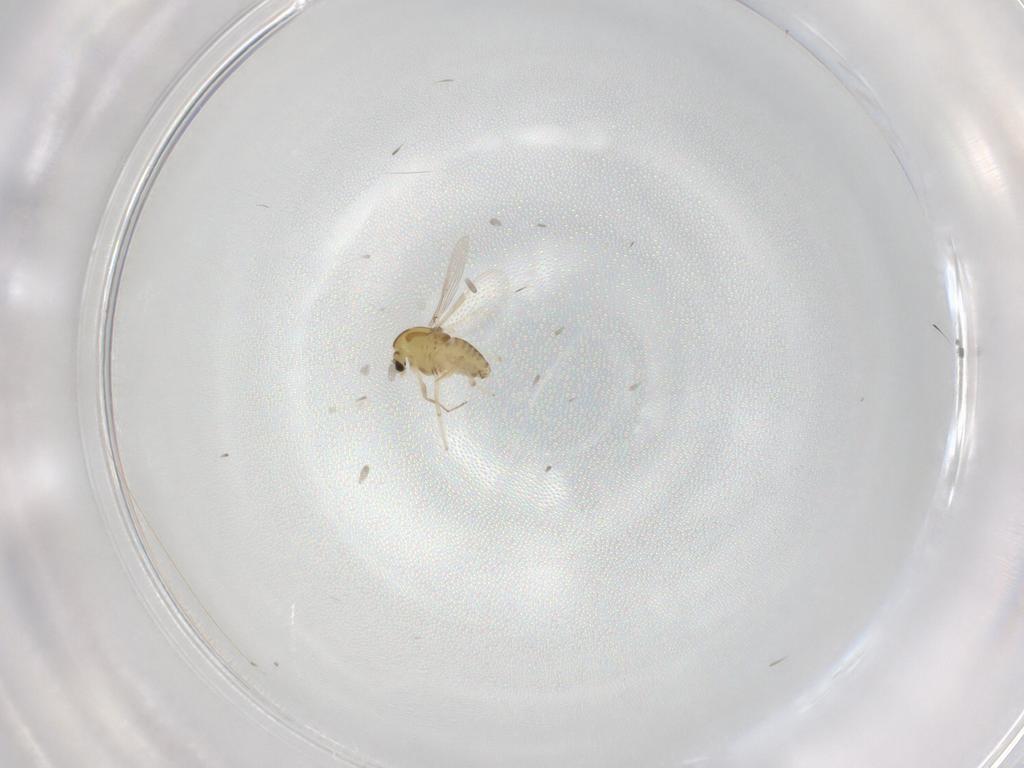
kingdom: Animalia
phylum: Arthropoda
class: Insecta
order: Diptera
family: Chironomidae
